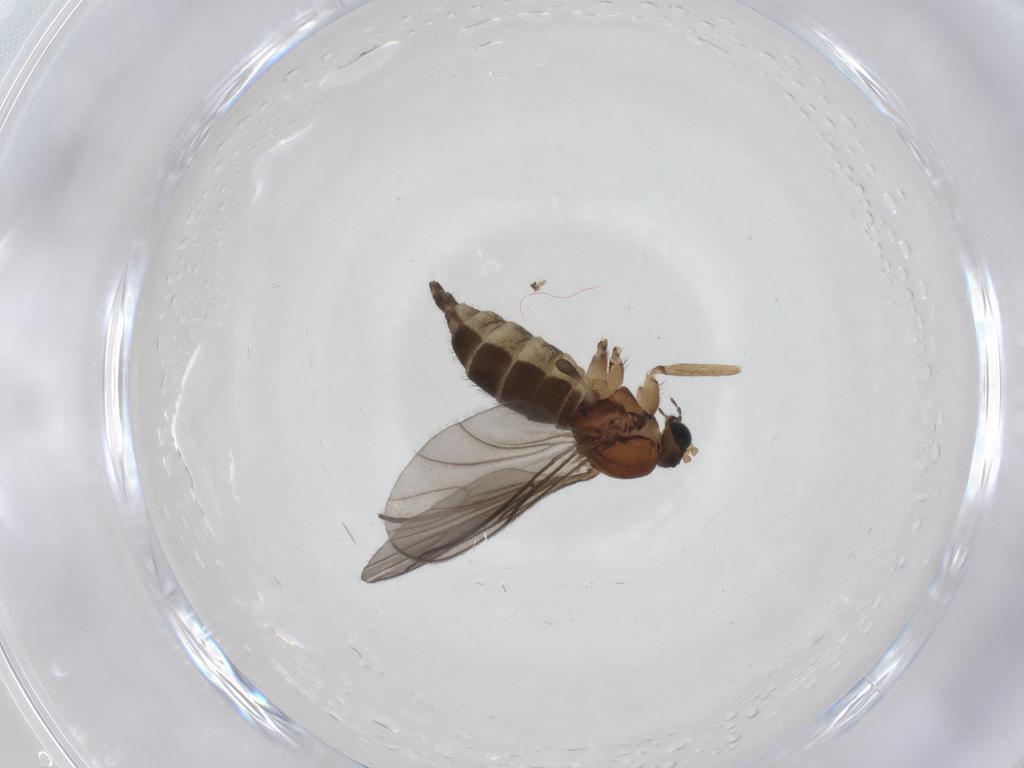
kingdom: Animalia
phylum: Arthropoda
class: Insecta
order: Diptera
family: Sciaridae
